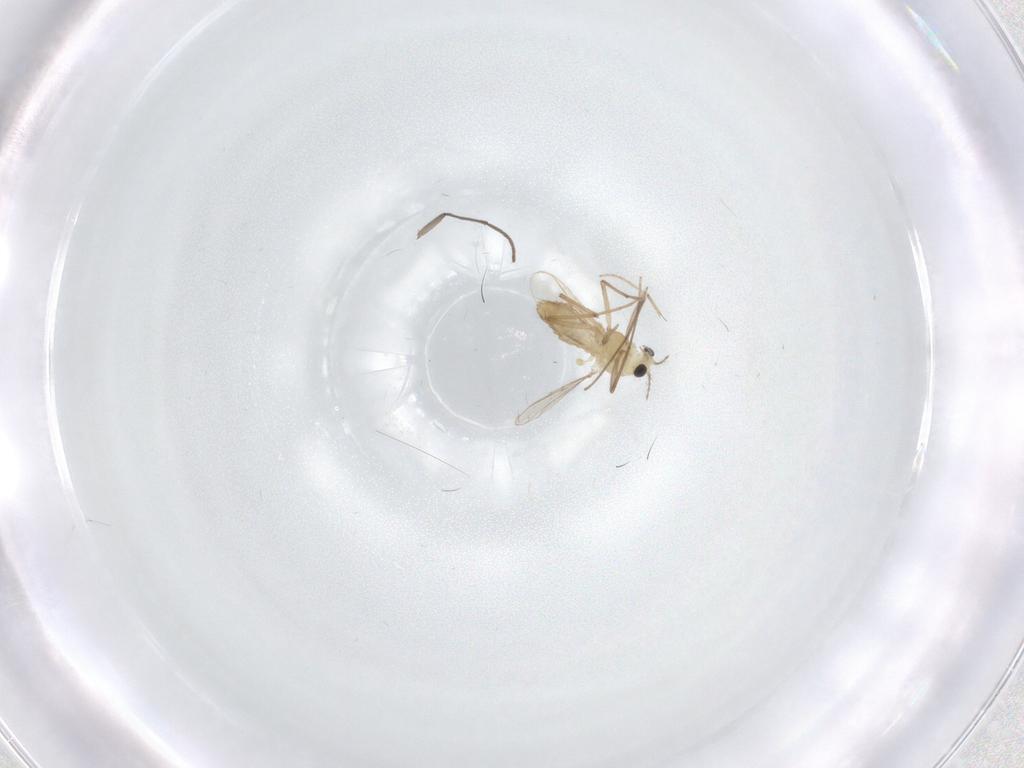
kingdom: Animalia
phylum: Arthropoda
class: Insecta
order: Diptera
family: Chironomidae
